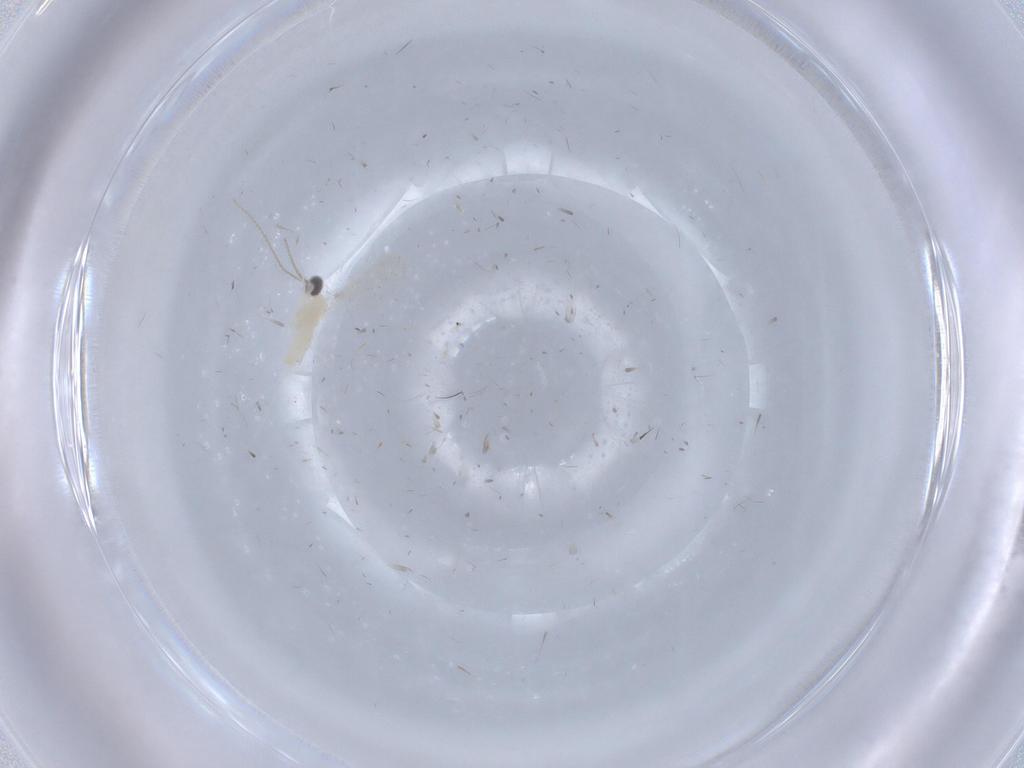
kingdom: Animalia
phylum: Arthropoda
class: Insecta
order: Diptera
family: Cecidomyiidae
